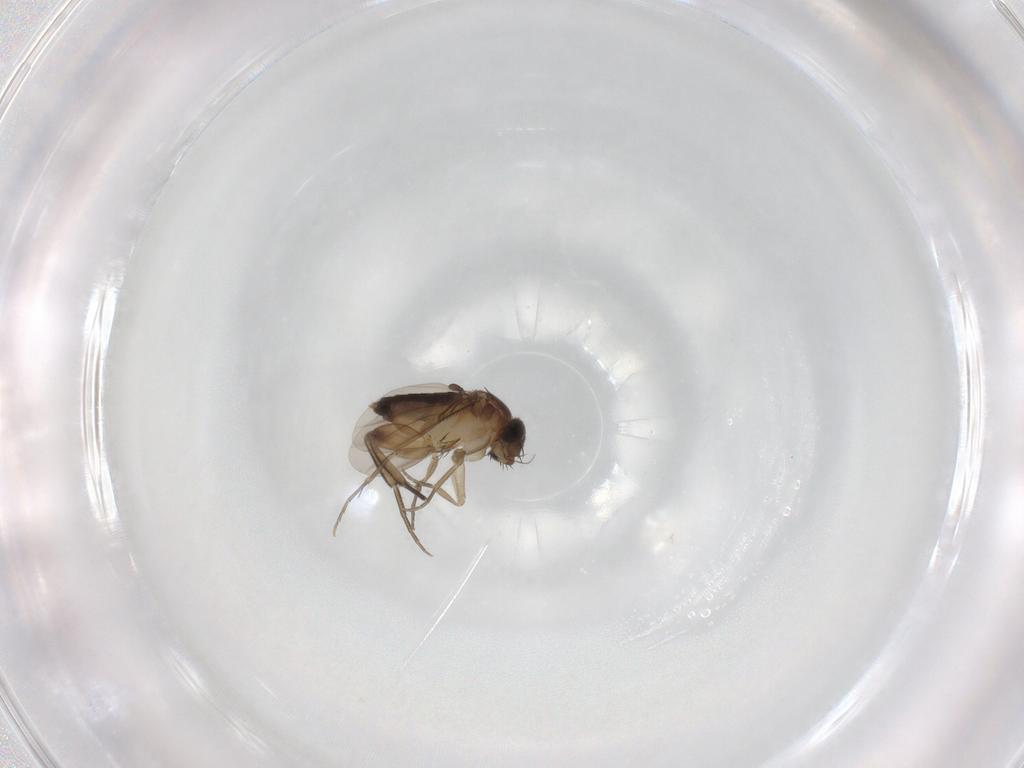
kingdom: Animalia
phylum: Arthropoda
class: Insecta
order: Diptera
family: Phoridae
